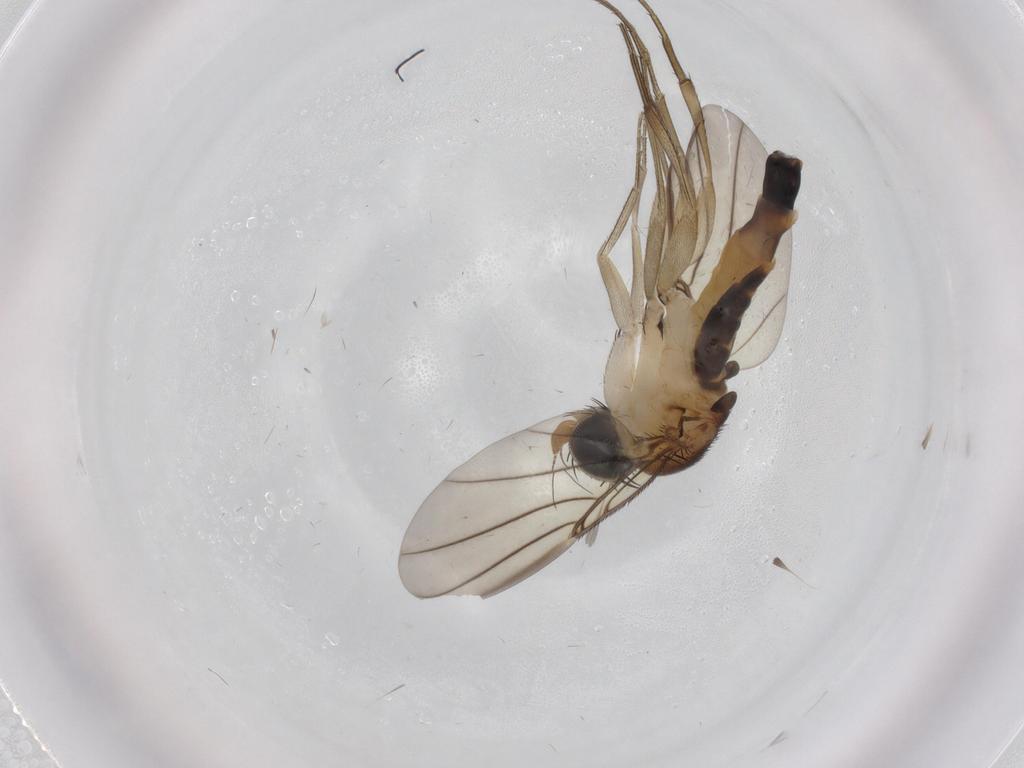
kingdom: Animalia
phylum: Arthropoda
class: Insecta
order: Diptera
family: Phoridae
